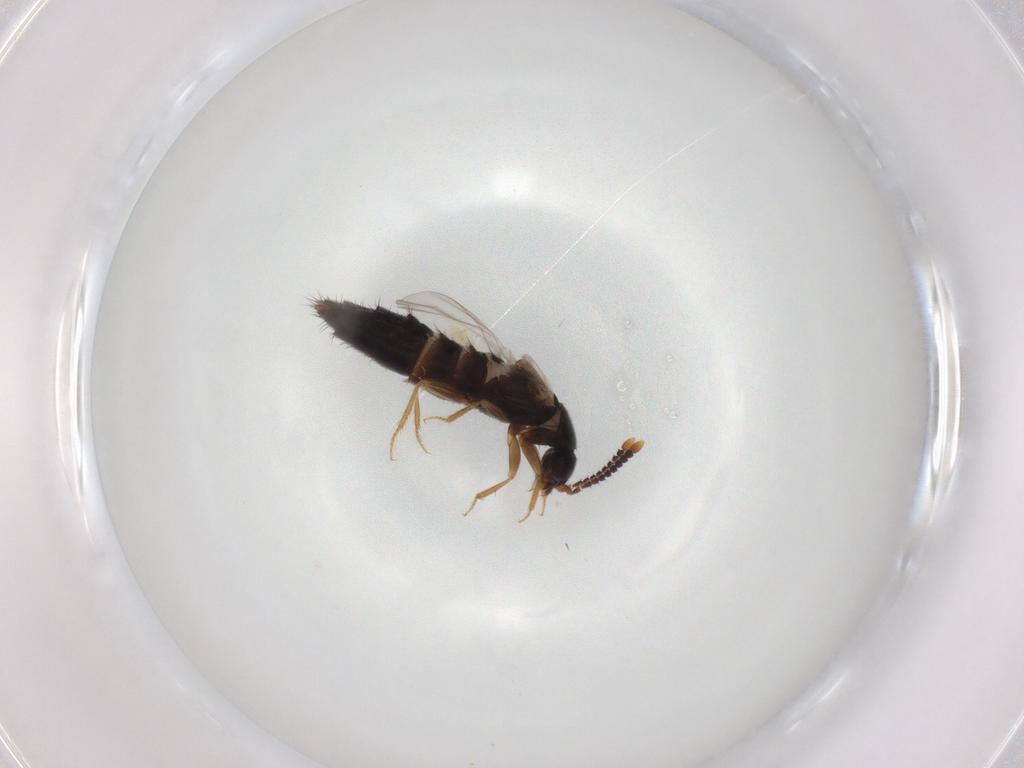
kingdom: Animalia
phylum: Arthropoda
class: Insecta
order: Coleoptera
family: Staphylinidae
